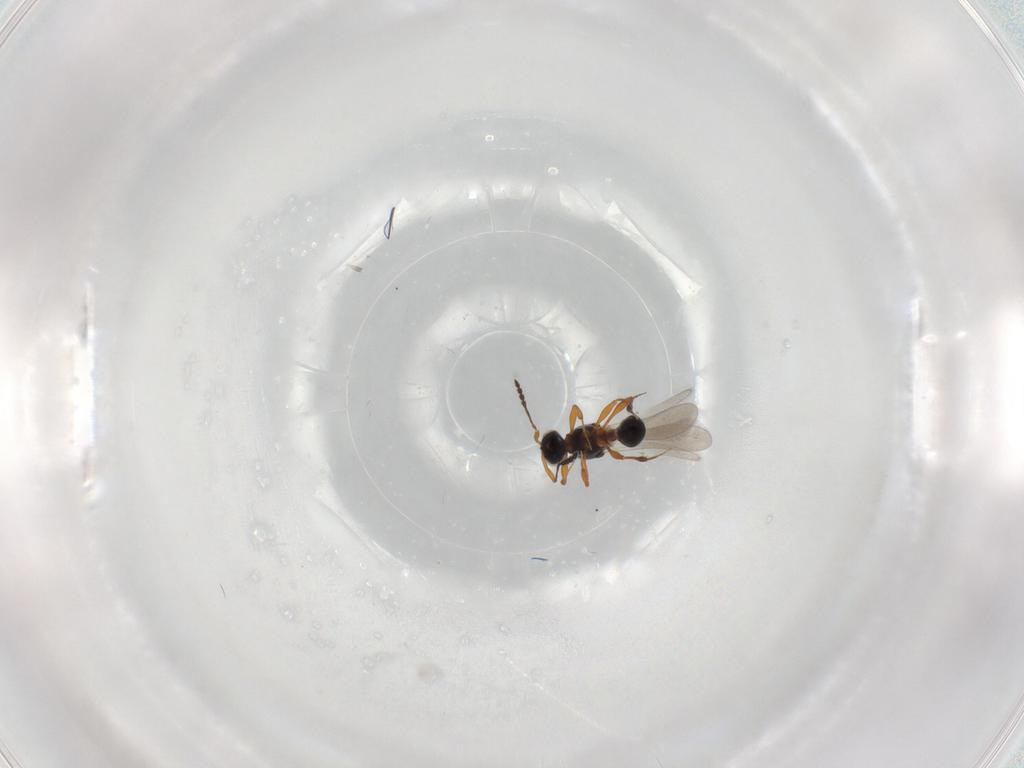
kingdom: Animalia
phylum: Arthropoda
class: Insecta
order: Hymenoptera
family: Platygastridae
